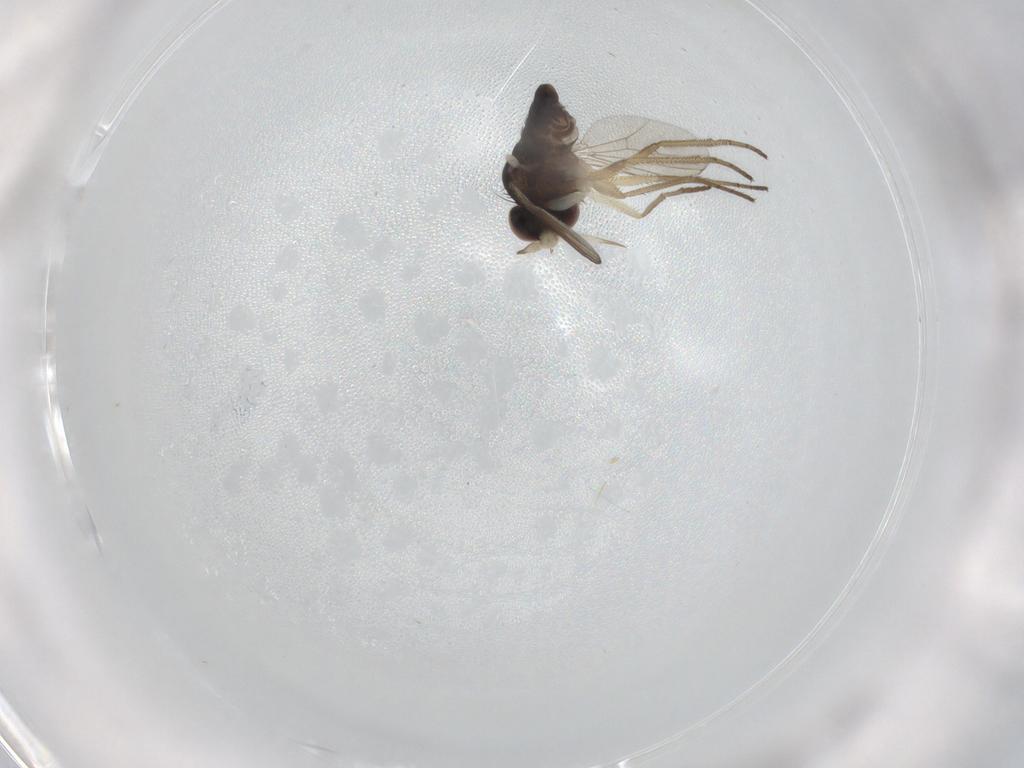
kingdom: Animalia
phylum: Arthropoda
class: Insecta
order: Diptera
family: Dolichopodidae
